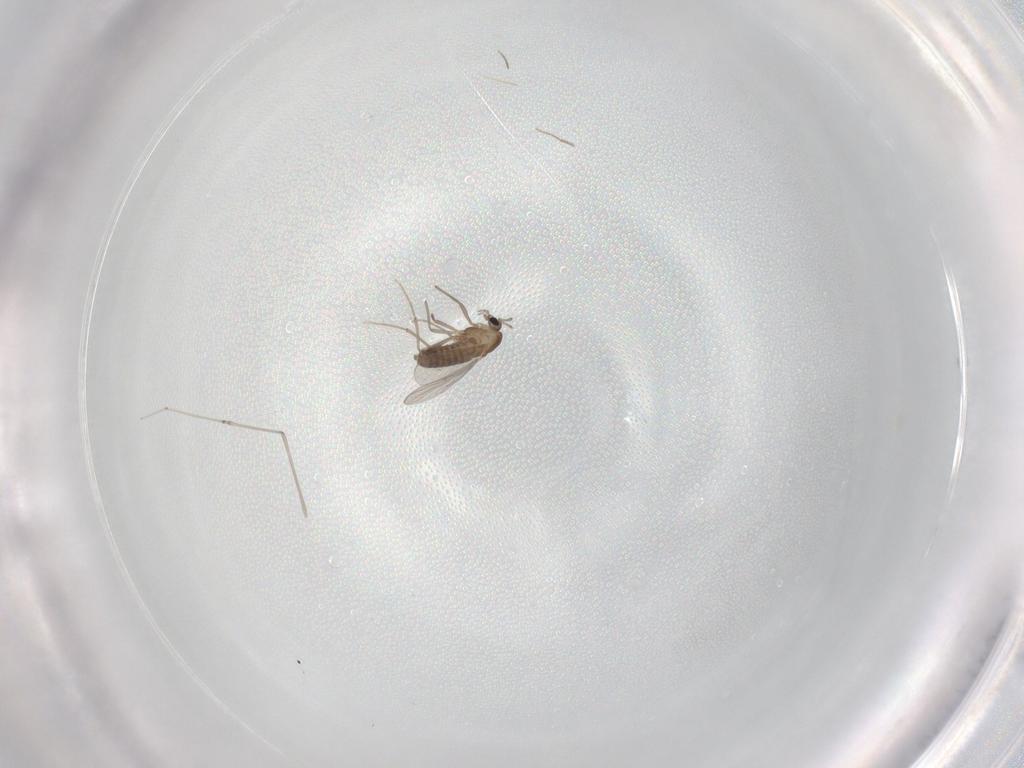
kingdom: Animalia
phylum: Arthropoda
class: Insecta
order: Diptera
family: Chironomidae
